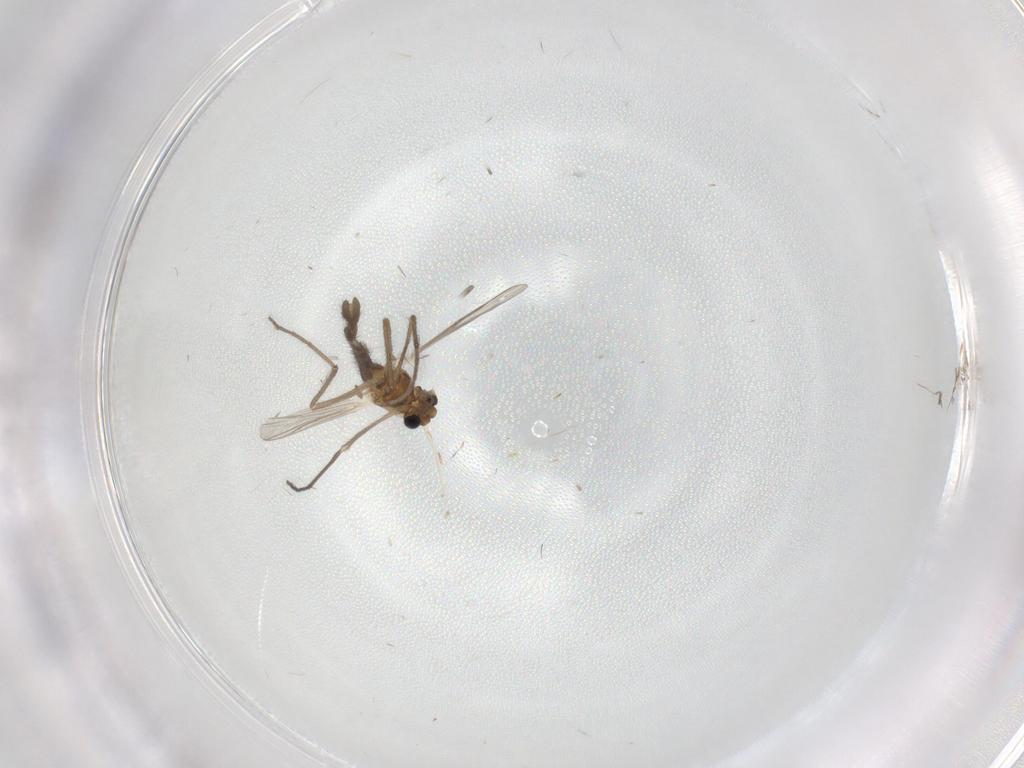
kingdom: Animalia
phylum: Arthropoda
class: Insecta
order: Diptera
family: Chironomidae
